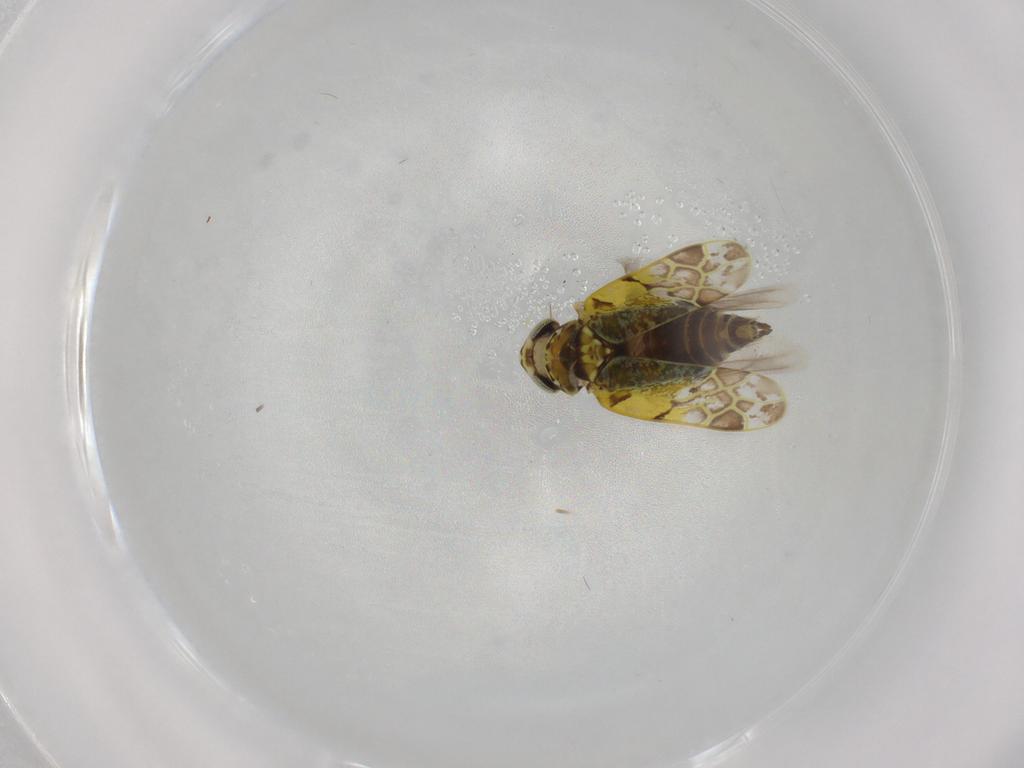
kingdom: Animalia
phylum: Arthropoda
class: Insecta
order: Hemiptera
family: Cicadellidae
